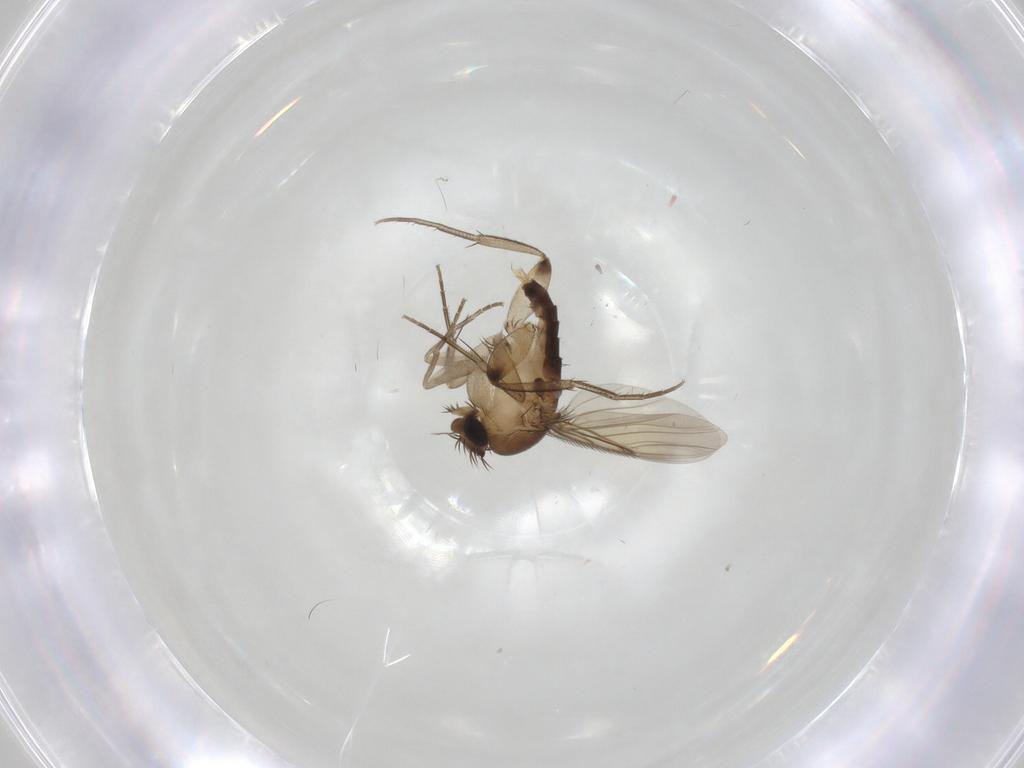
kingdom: Animalia
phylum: Arthropoda
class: Insecta
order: Diptera
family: Phoridae
